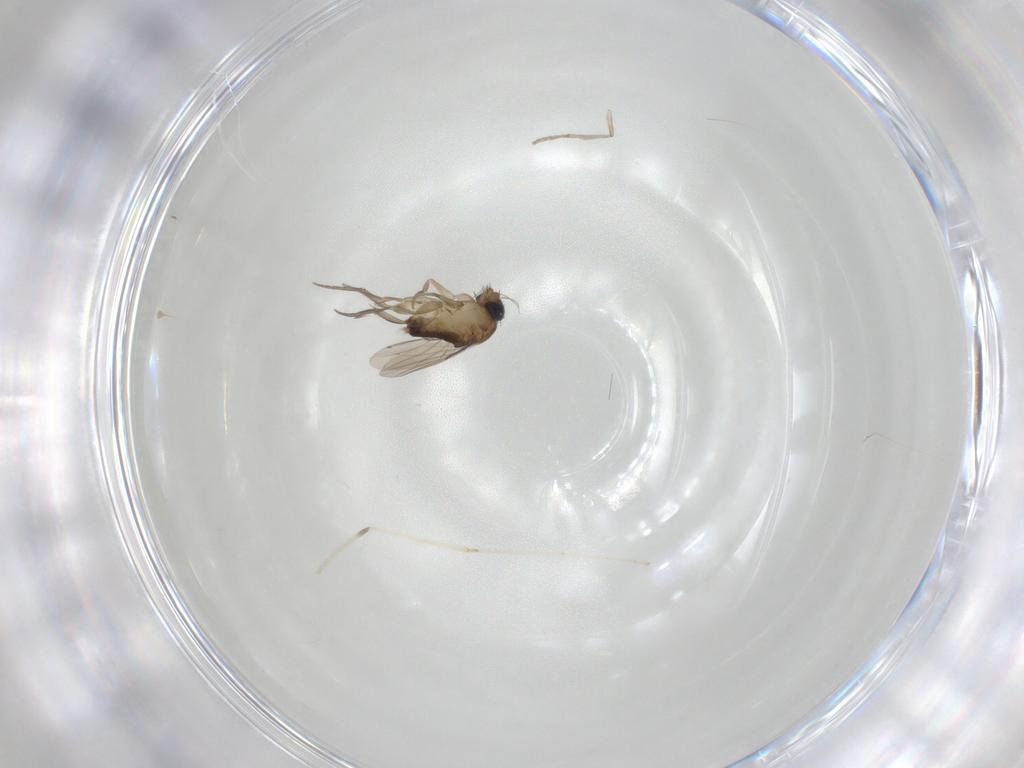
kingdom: Animalia
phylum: Arthropoda
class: Insecta
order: Diptera
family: Phoridae
